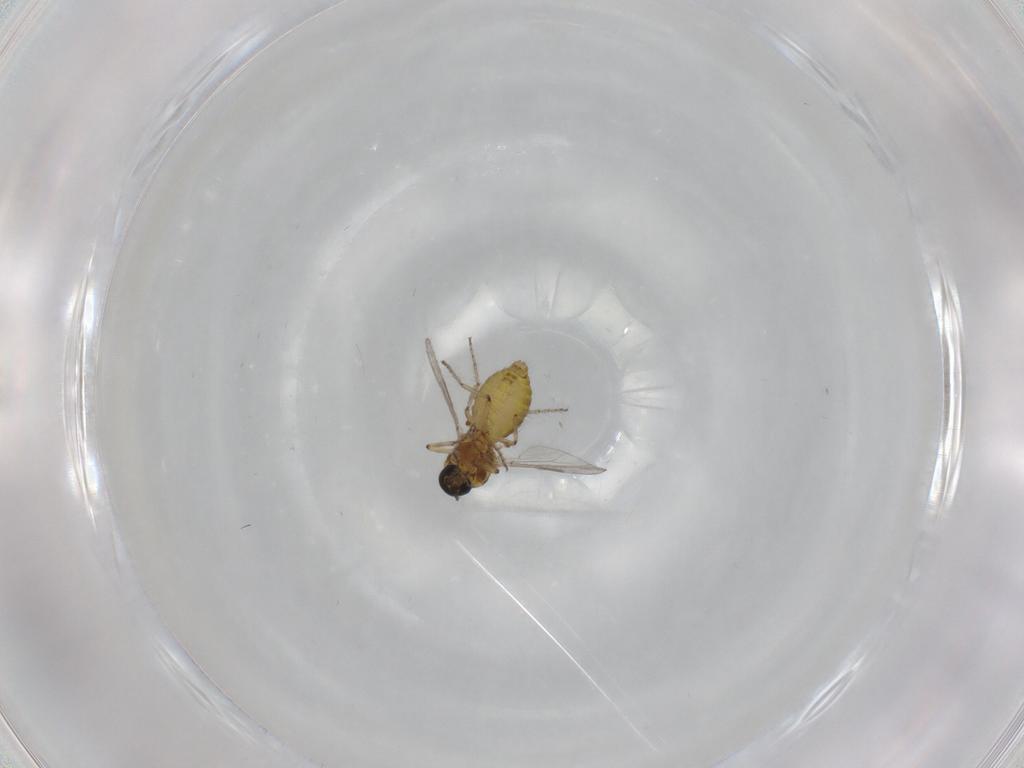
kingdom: Animalia
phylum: Arthropoda
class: Insecta
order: Diptera
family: Ceratopogonidae
